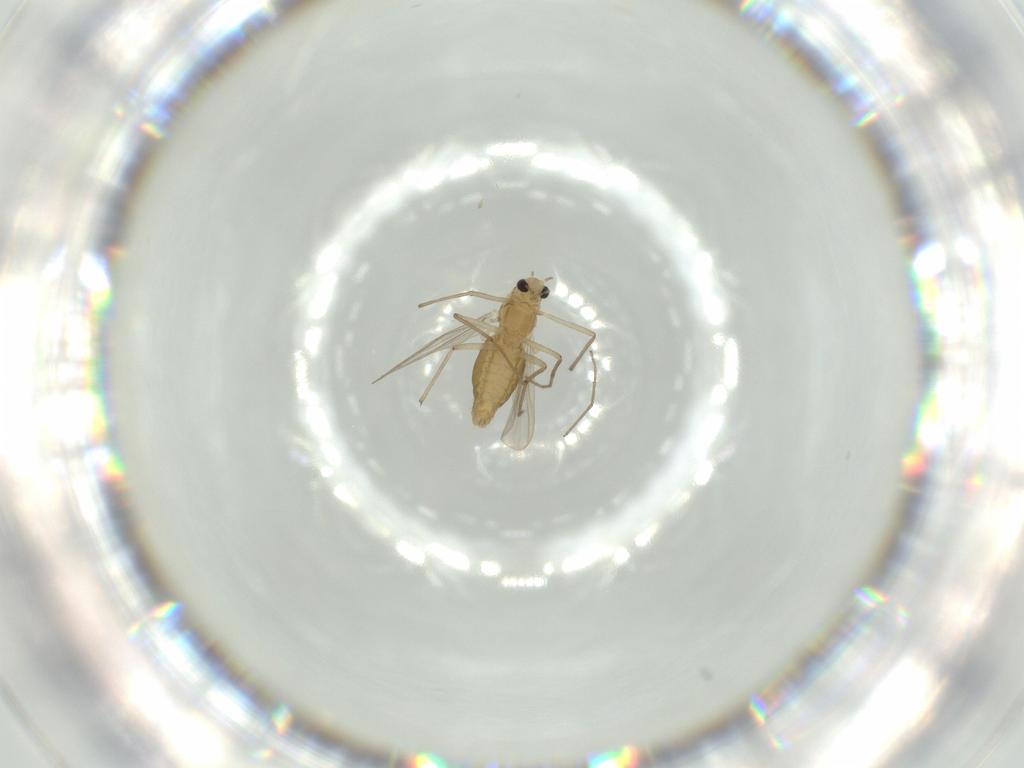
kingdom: Animalia
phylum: Arthropoda
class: Insecta
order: Diptera
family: Chironomidae
